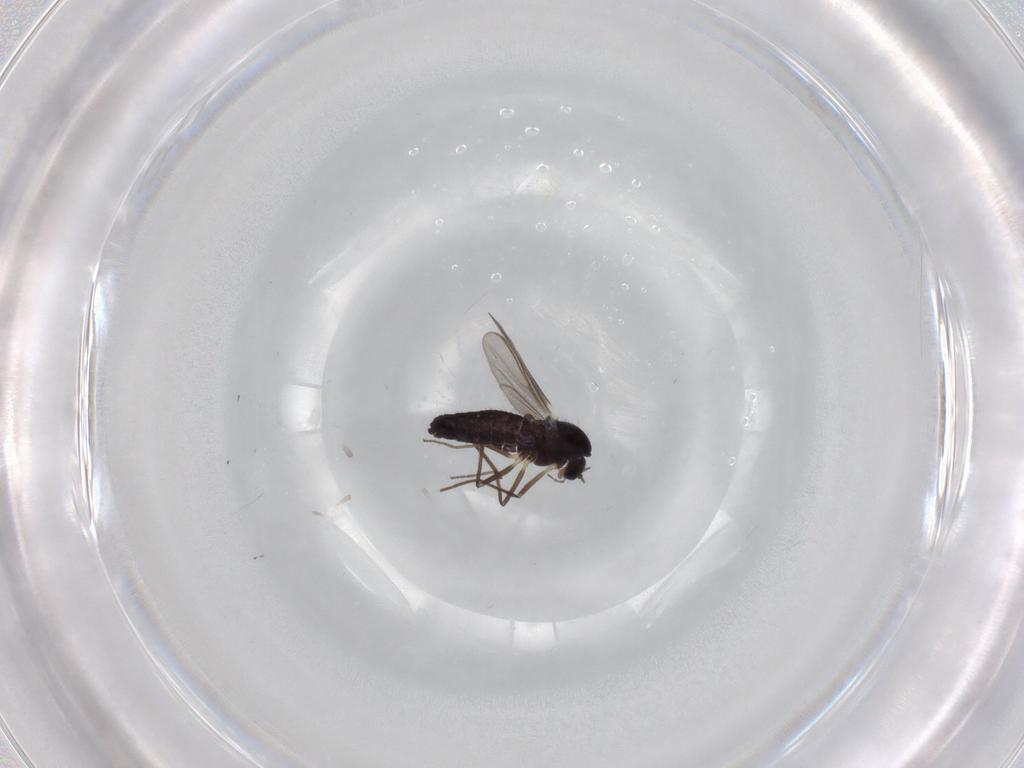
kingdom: Animalia
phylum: Arthropoda
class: Insecta
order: Diptera
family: Chironomidae
